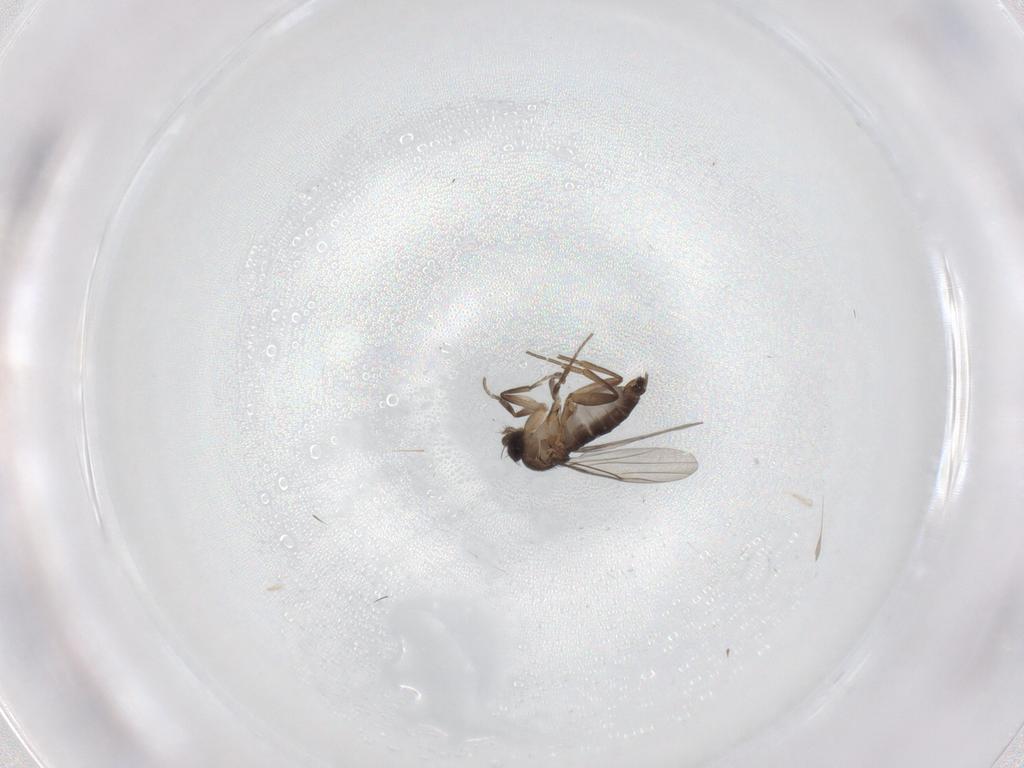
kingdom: Animalia
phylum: Arthropoda
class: Insecta
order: Diptera
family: Phoridae
